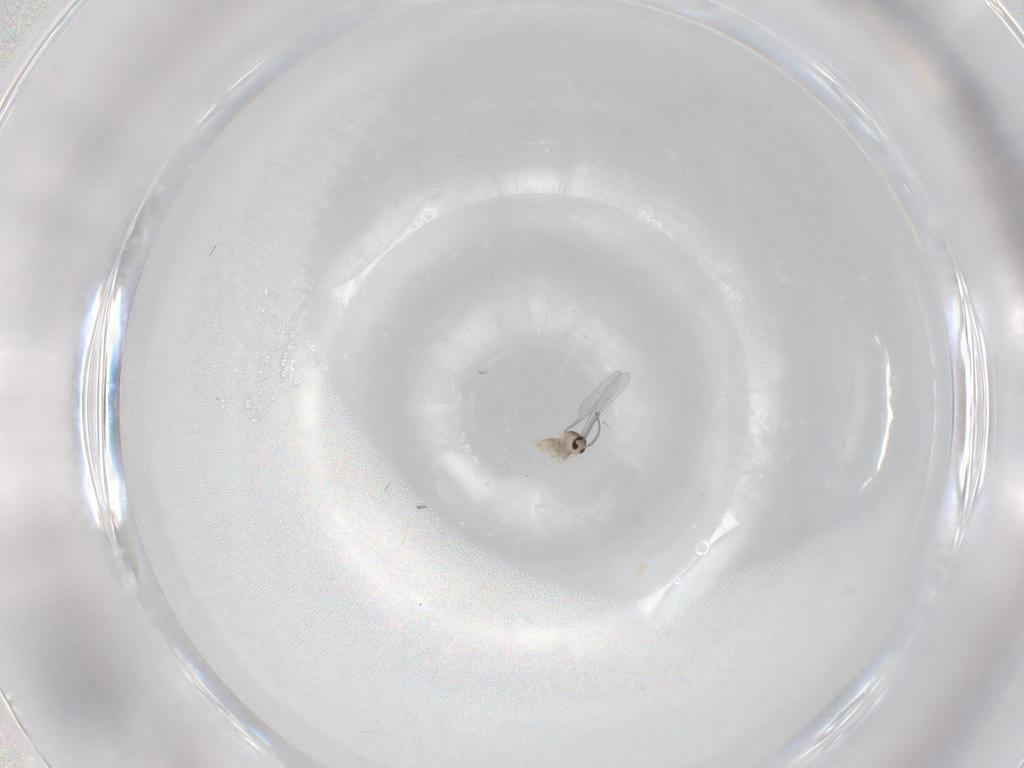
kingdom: Animalia
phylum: Arthropoda
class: Insecta
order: Diptera
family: Cecidomyiidae
